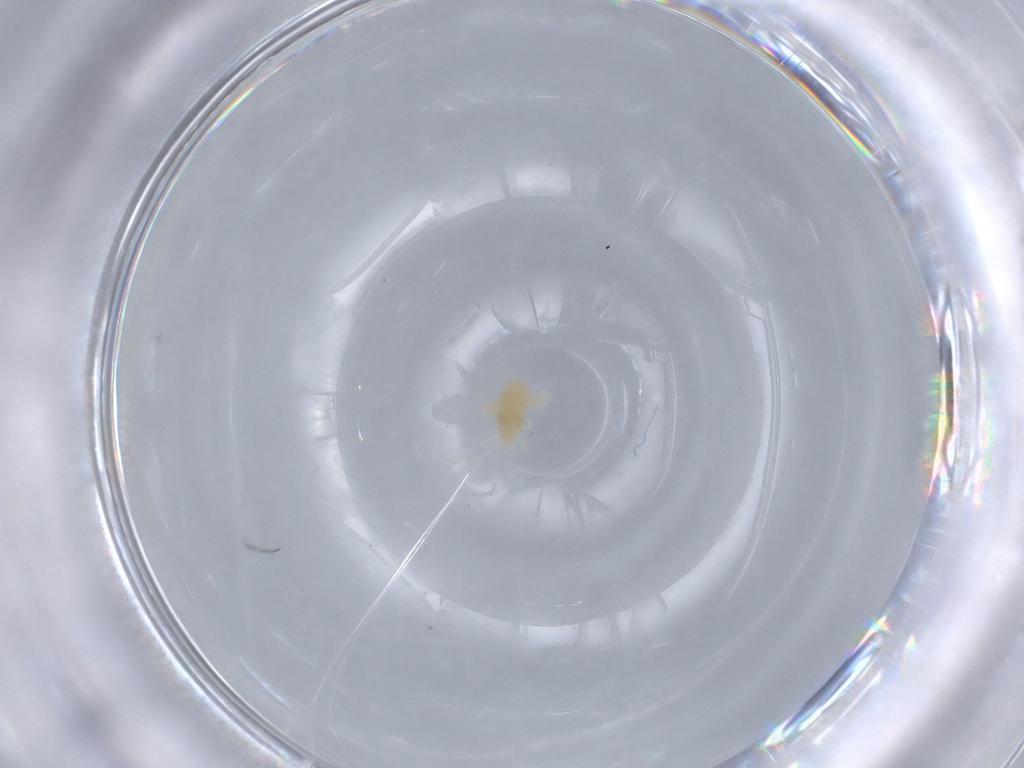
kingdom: Animalia
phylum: Arthropoda
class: Arachnida
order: Trombidiformes
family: Eupodidae
